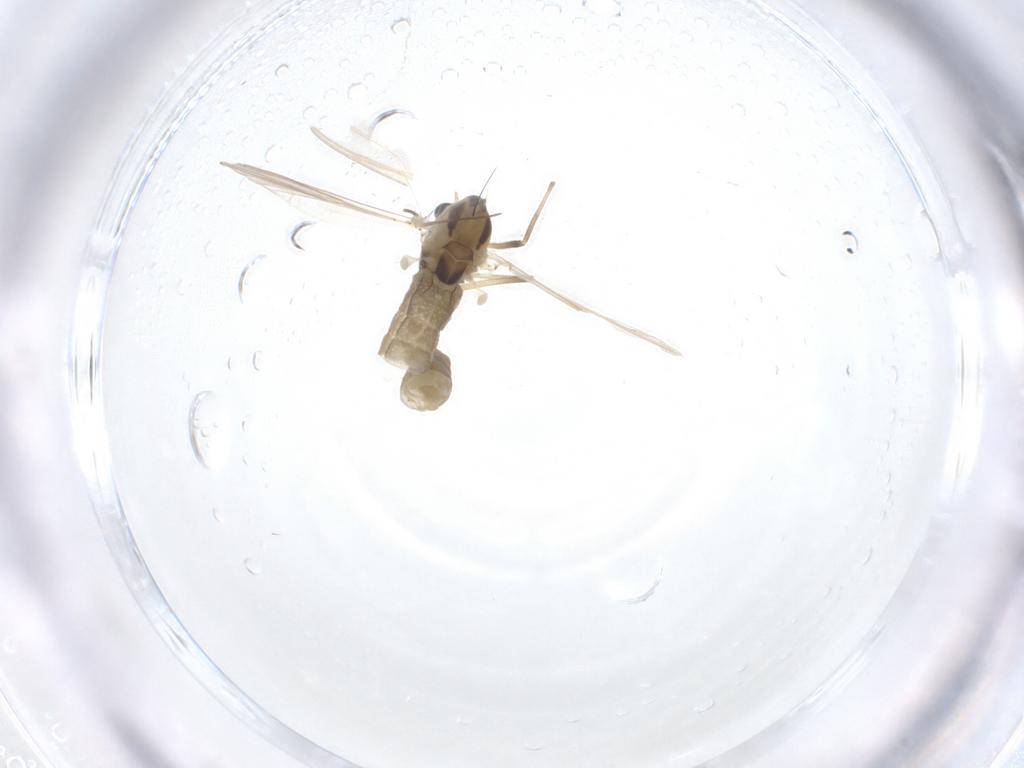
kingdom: Animalia
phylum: Arthropoda
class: Insecta
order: Diptera
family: Chironomidae
